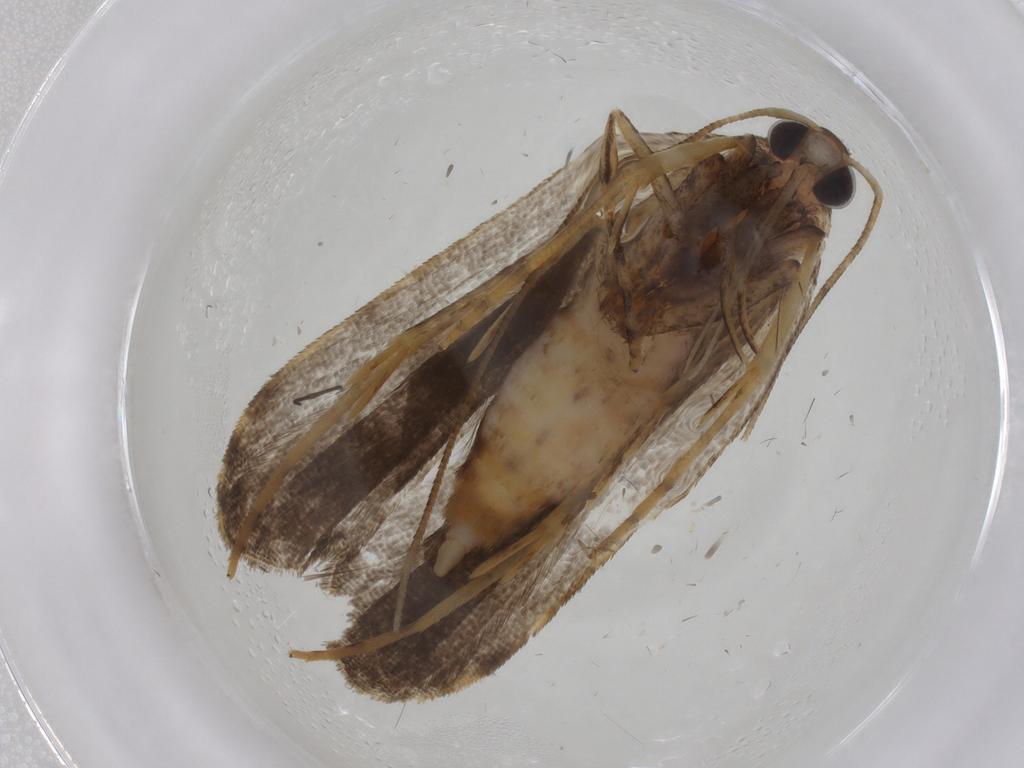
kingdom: Animalia
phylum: Arthropoda
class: Insecta
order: Lepidoptera
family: Cosmopterigidae
